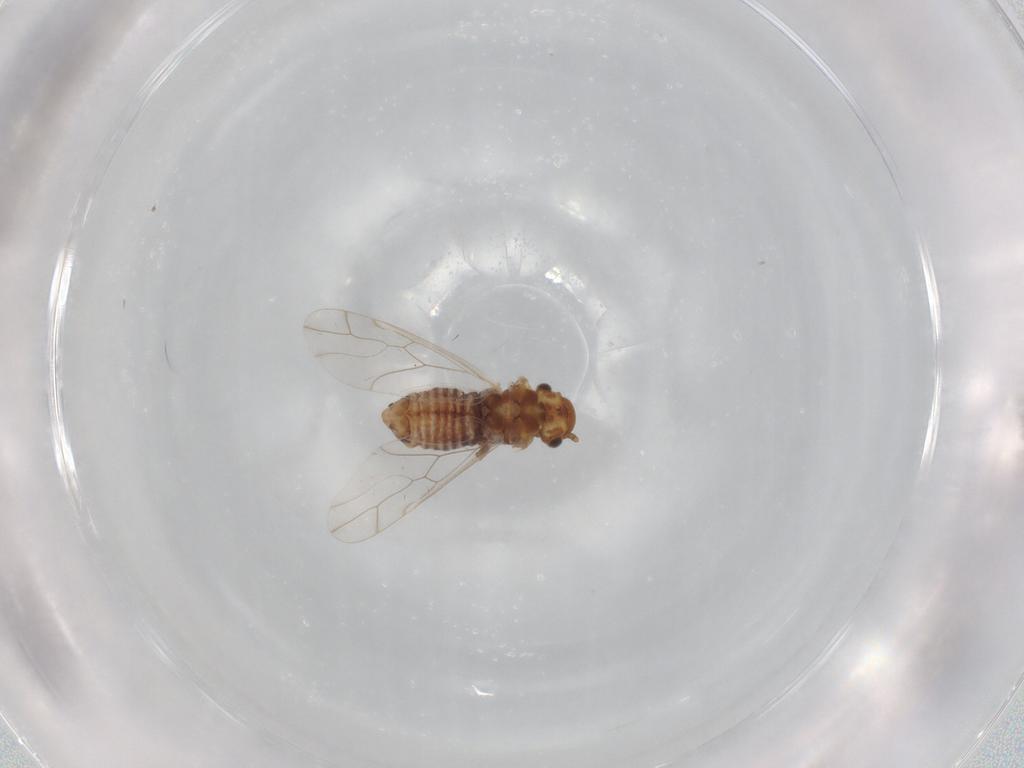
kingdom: Animalia
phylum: Arthropoda
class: Insecta
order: Psocodea
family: Lachesillidae
